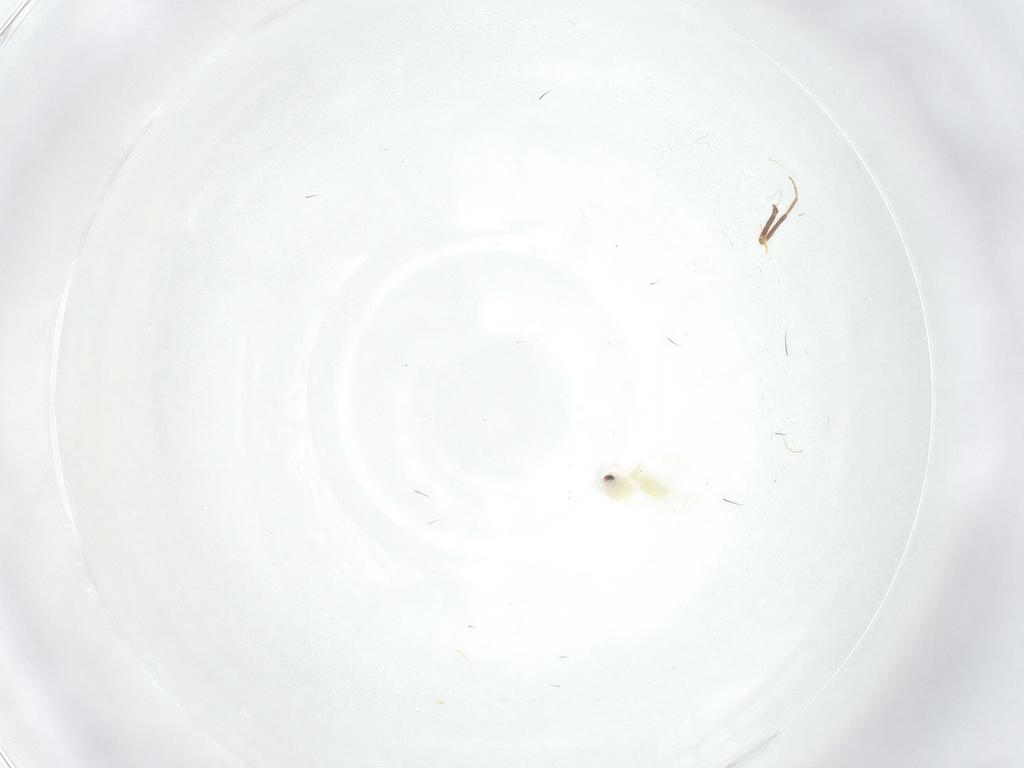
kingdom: Animalia
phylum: Arthropoda
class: Insecta
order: Hemiptera
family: Aleyrodidae
